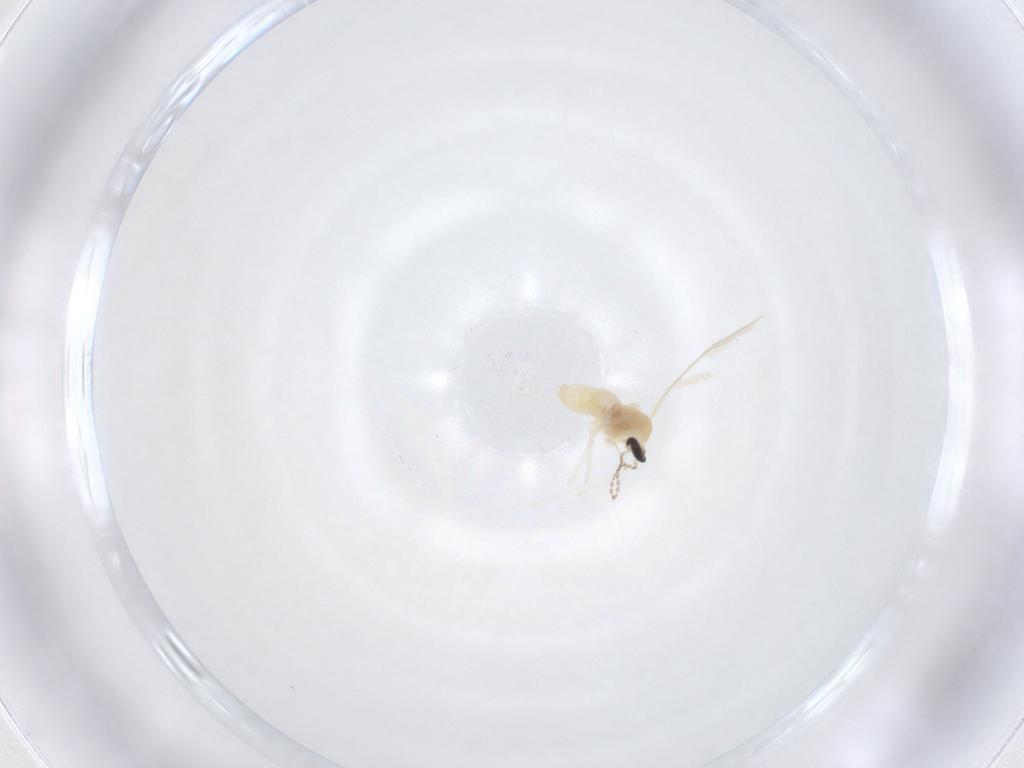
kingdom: Animalia
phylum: Arthropoda
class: Insecta
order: Diptera
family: Cecidomyiidae
